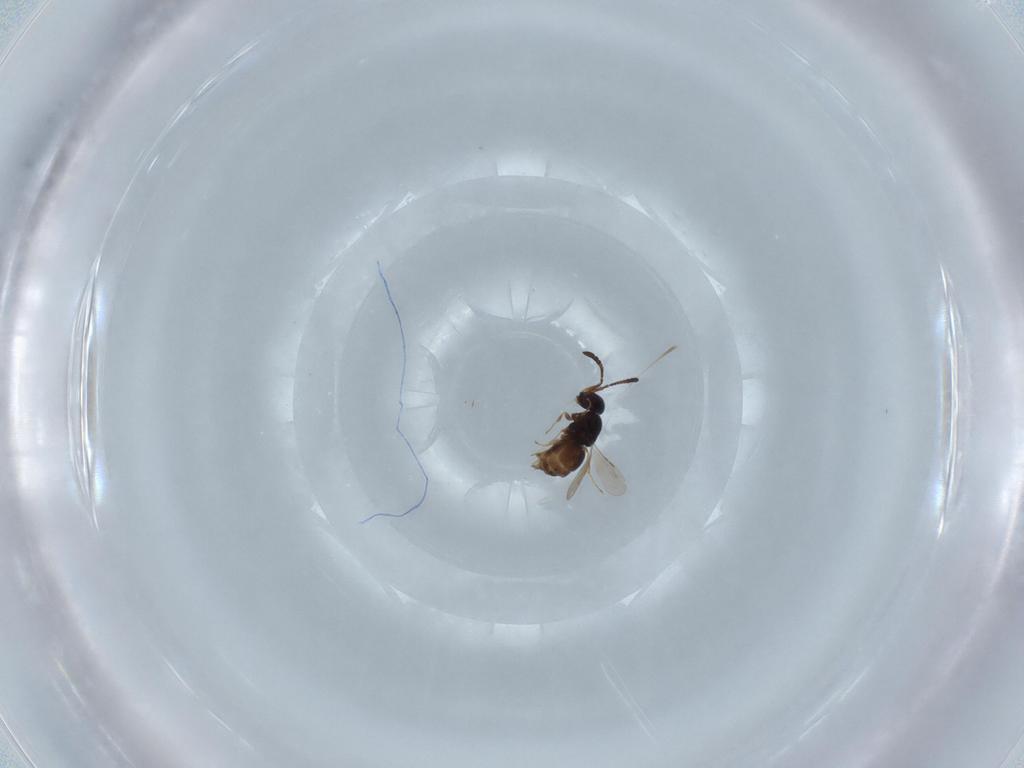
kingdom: Animalia
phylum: Arthropoda
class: Insecta
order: Hymenoptera
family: Ceraphronidae
